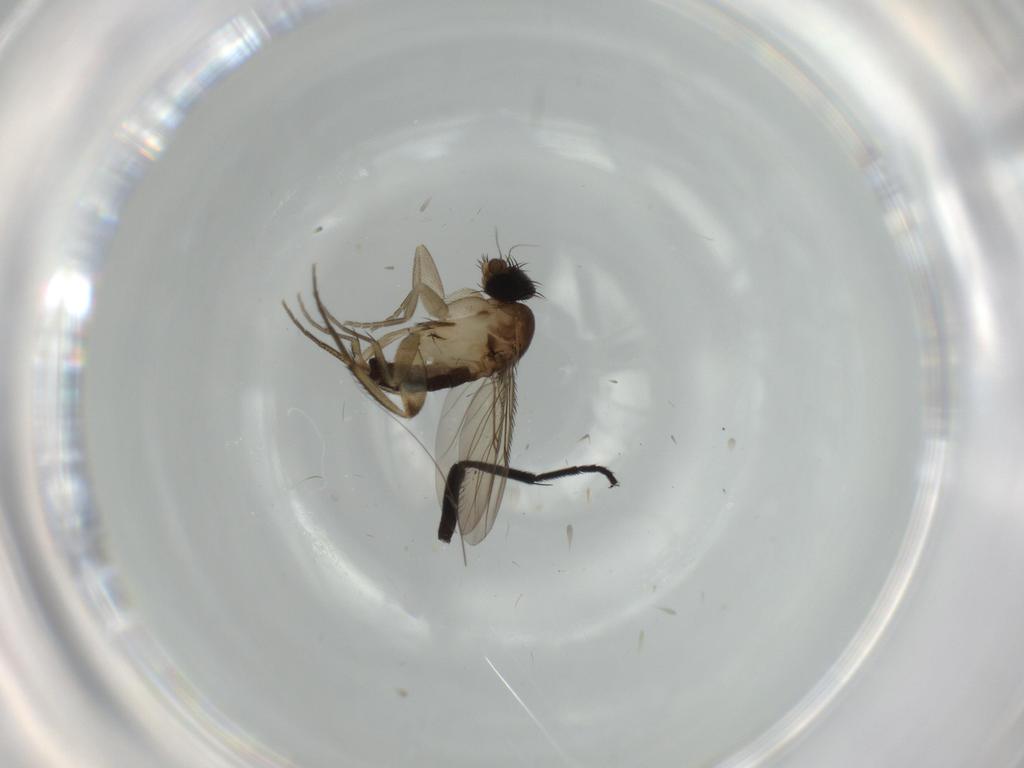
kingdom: Animalia
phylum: Arthropoda
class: Insecta
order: Diptera
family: Phoridae
